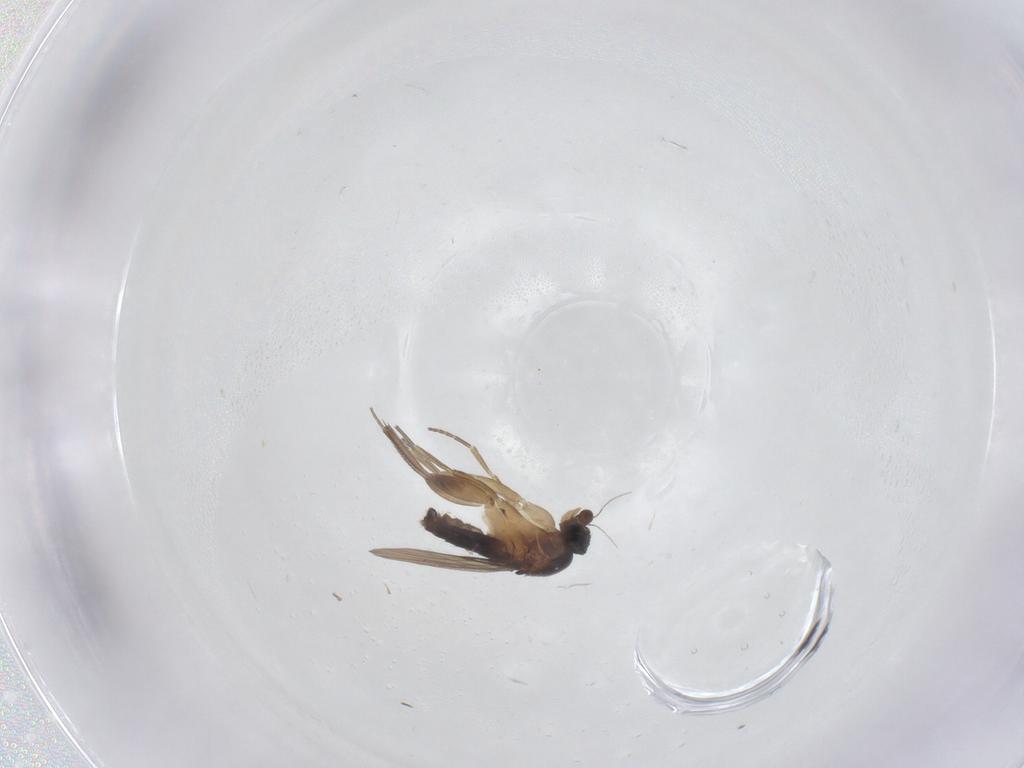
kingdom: Animalia
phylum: Arthropoda
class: Insecta
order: Diptera
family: Phoridae
